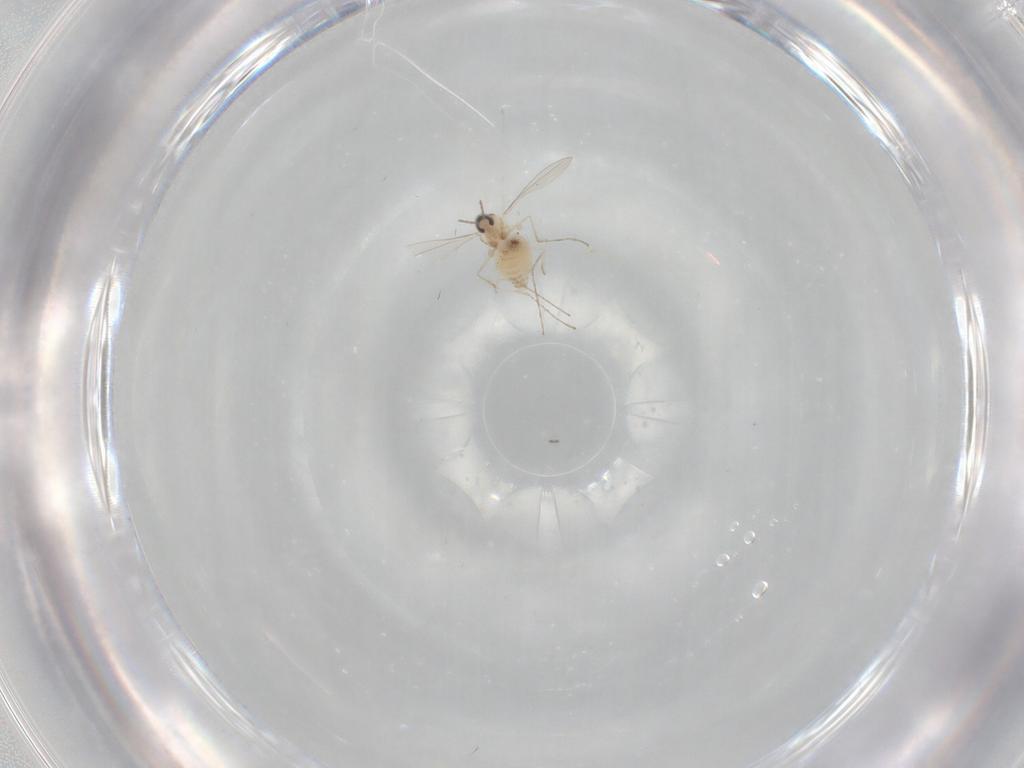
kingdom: Animalia
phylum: Arthropoda
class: Insecta
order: Diptera
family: Cecidomyiidae
